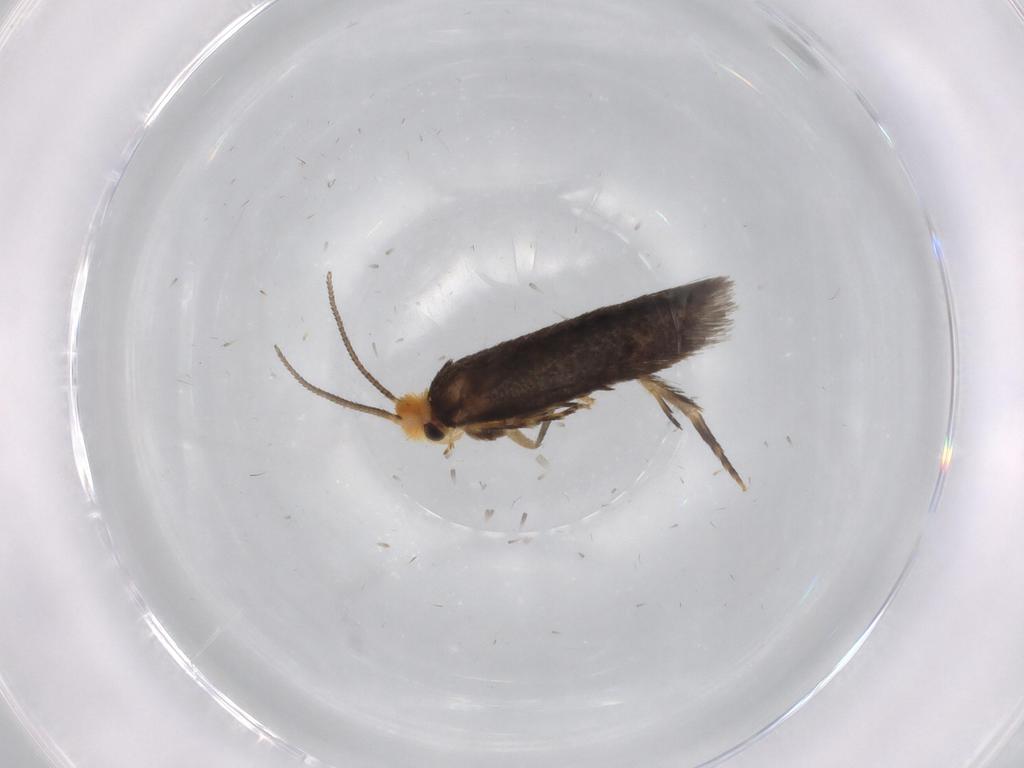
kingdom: Animalia
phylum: Arthropoda
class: Insecta
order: Lepidoptera
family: Nepticulidae
